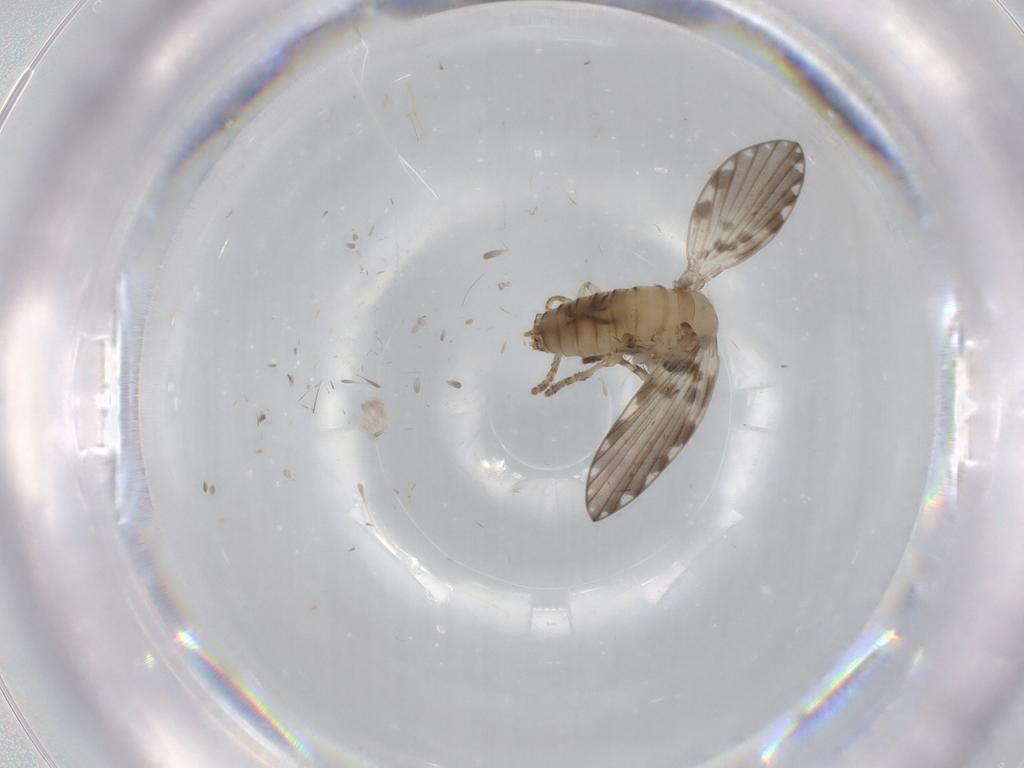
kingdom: Animalia
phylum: Arthropoda
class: Insecta
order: Diptera
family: Psychodidae
